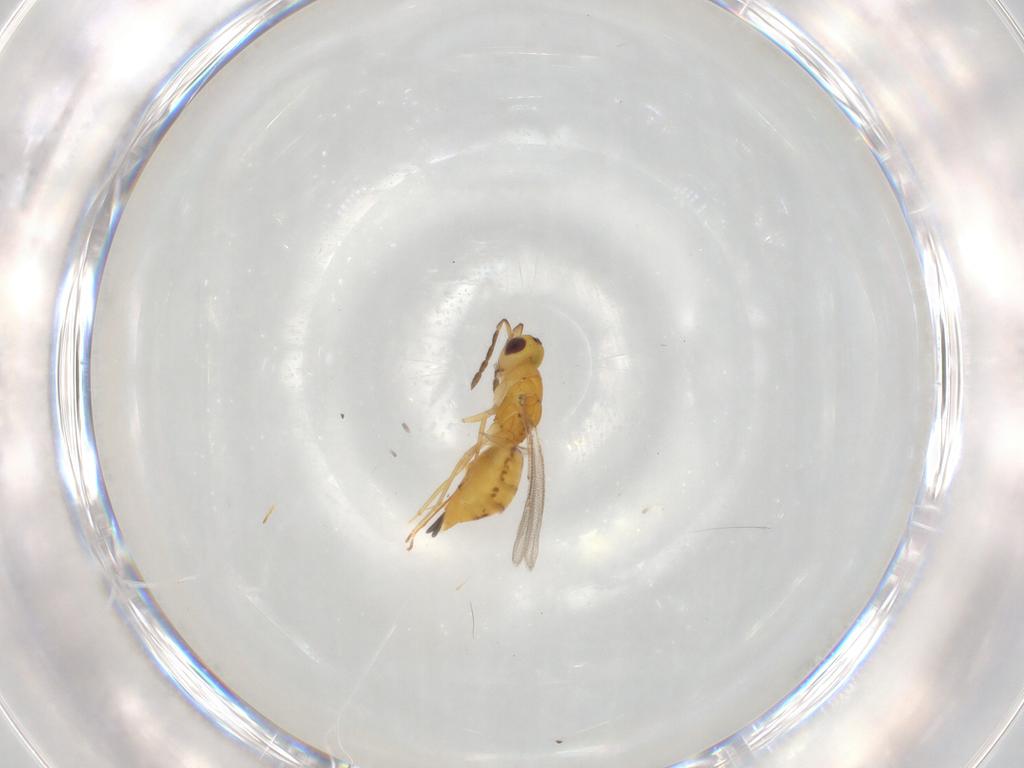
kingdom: Animalia
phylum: Arthropoda
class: Insecta
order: Hymenoptera
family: Eulophidae
